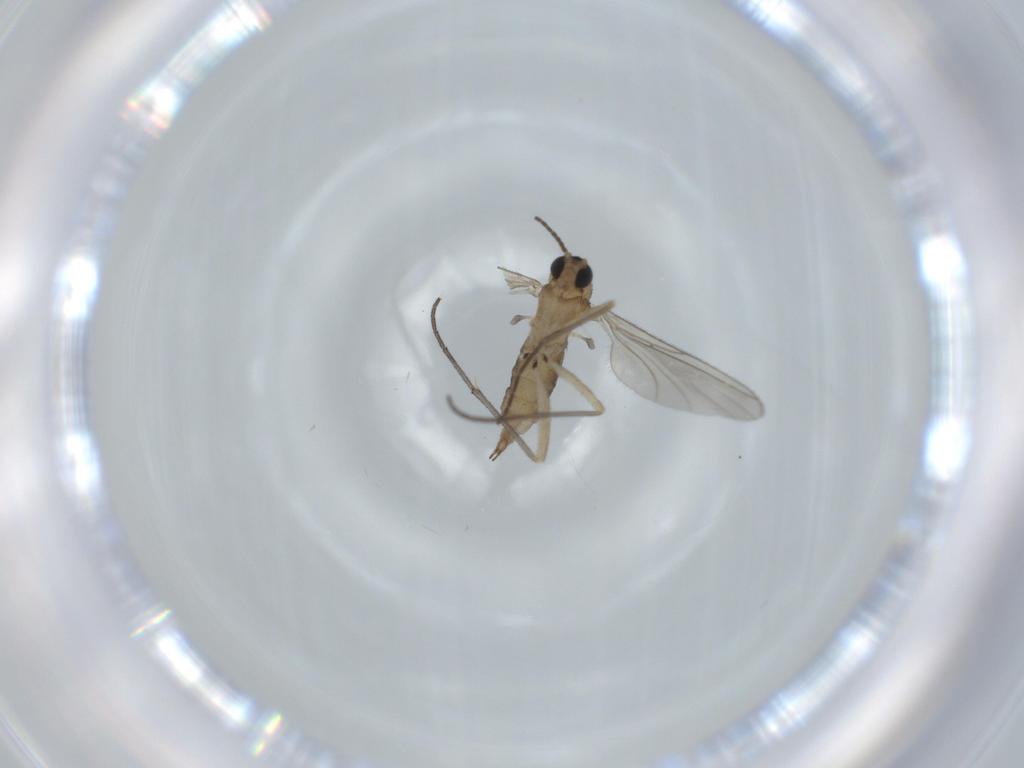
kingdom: Animalia
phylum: Arthropoda
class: Insecta
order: Diptera
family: Sciaridae
